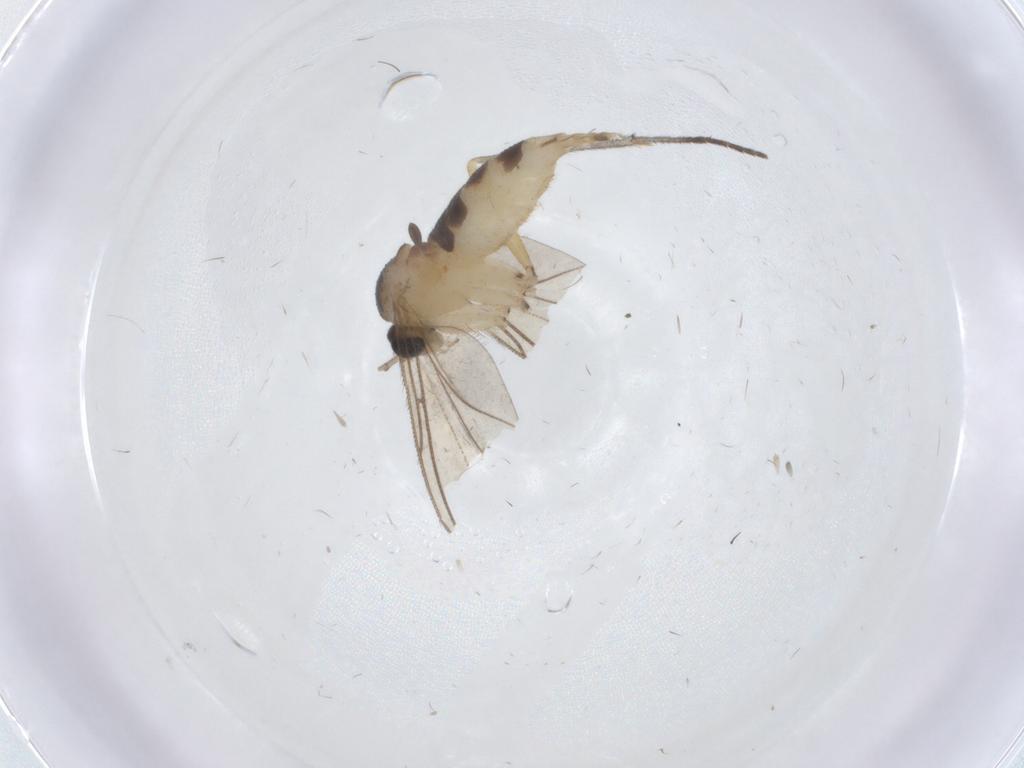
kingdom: Animalia
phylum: Arthropoda
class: Insecta
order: Diptera
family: Sciaridae
